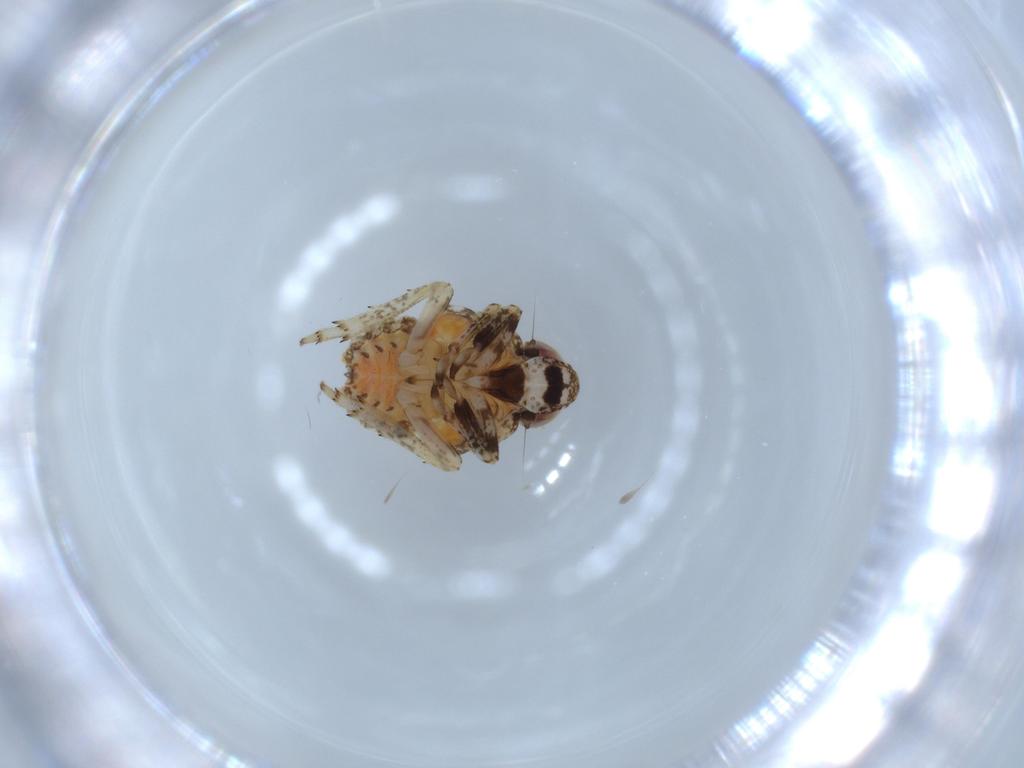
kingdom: Animalia
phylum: Arthropoda
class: Insecta
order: Hemiptera
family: Issidae
